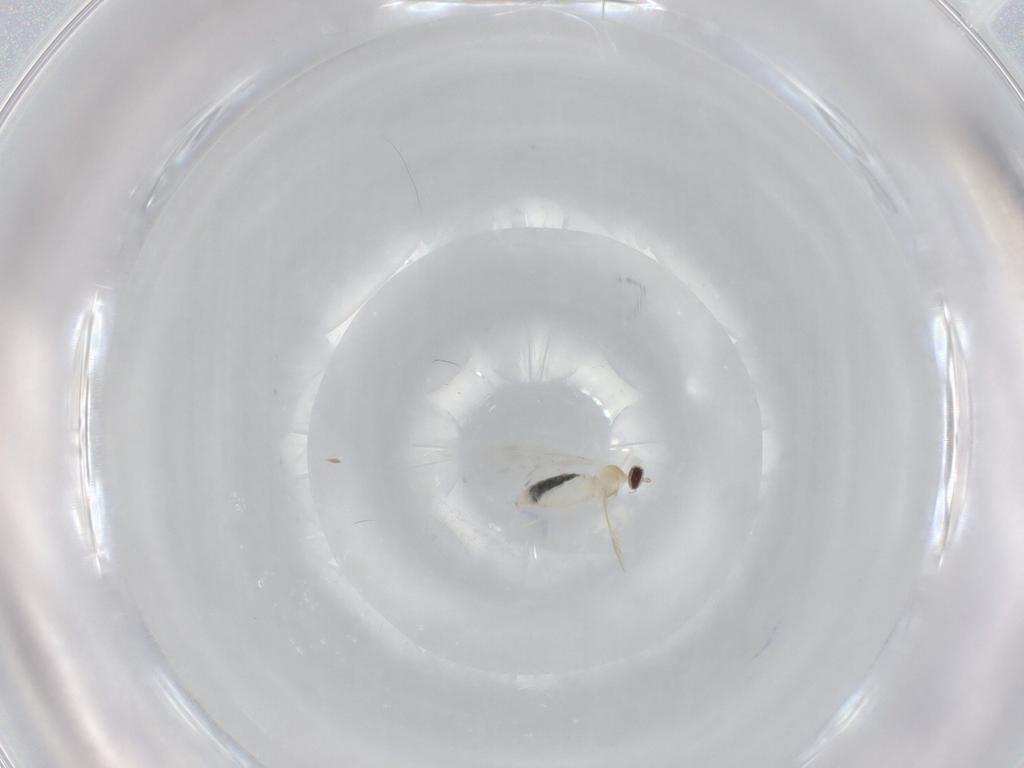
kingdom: Animalia
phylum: Arthropoda
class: Insecta
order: Diptera
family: Cecidomyiidae
